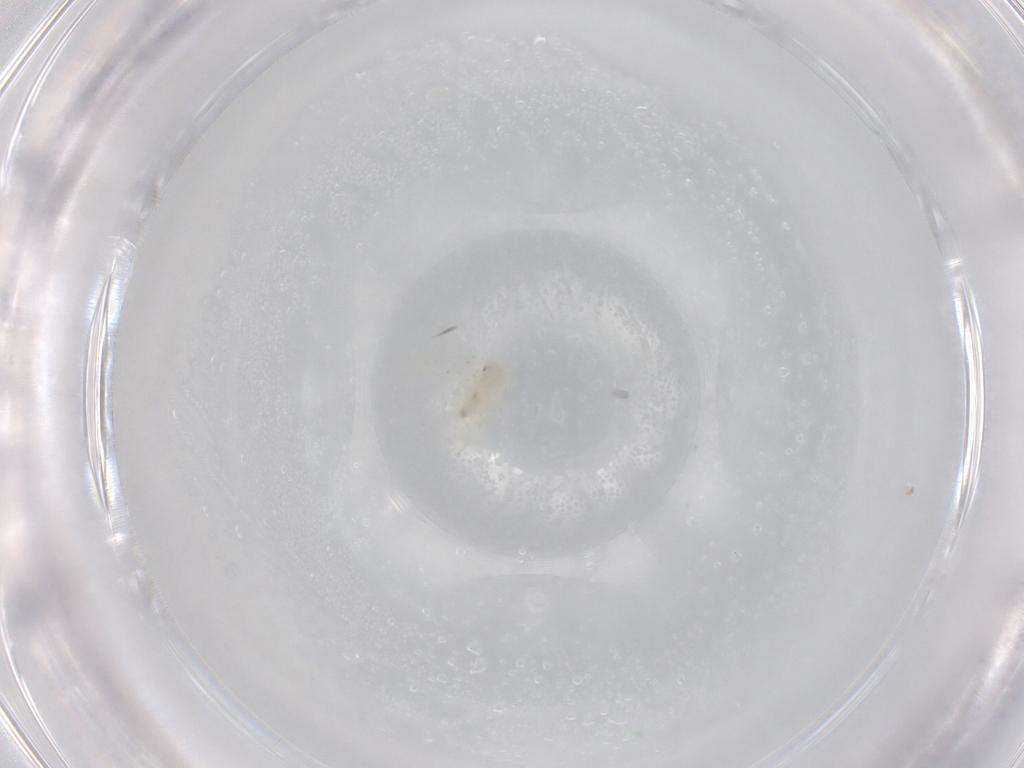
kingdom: Animalia
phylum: Arthropoda
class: Insecta
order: Hemiptera
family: Aleyrodidae
